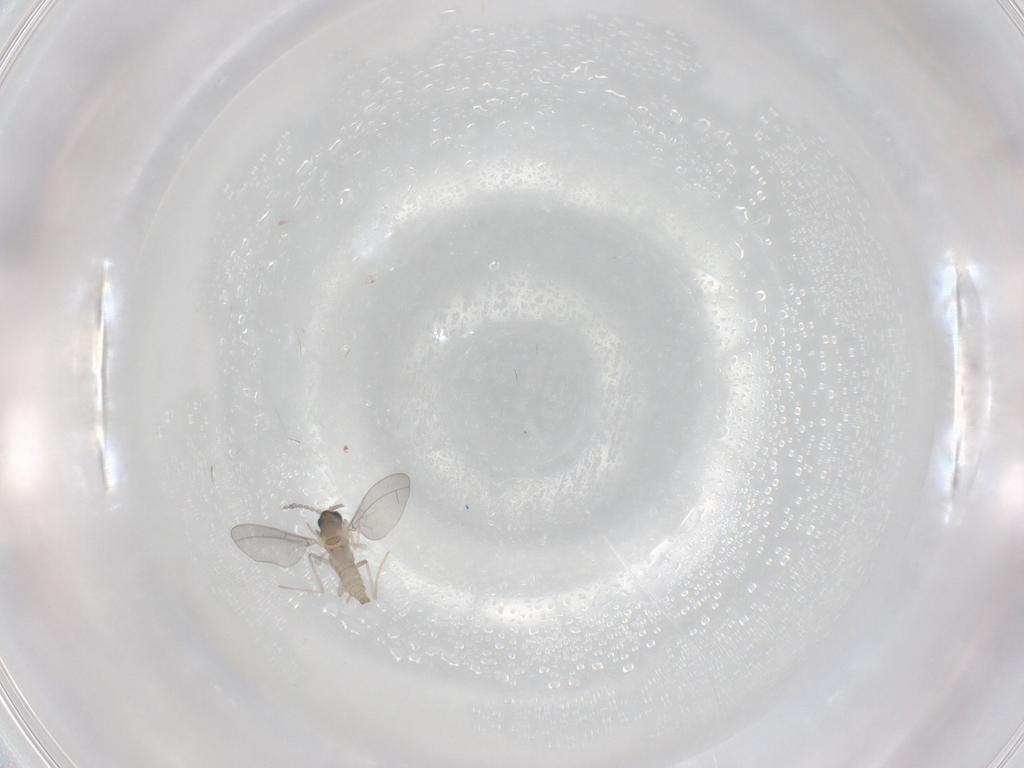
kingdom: Animalia
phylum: Arthropoda
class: Insecta
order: Diptera
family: Cecidomyiidae
